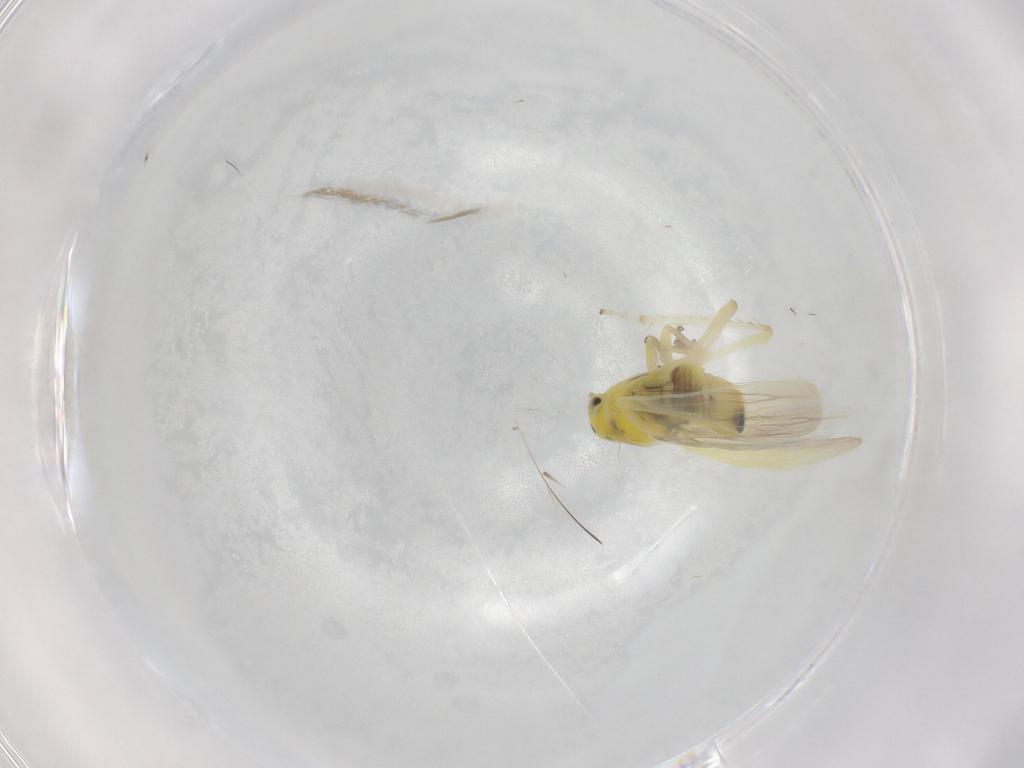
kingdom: Animalia
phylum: Arthropoda
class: Insecta
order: Hemiptera
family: Cicadellidae
